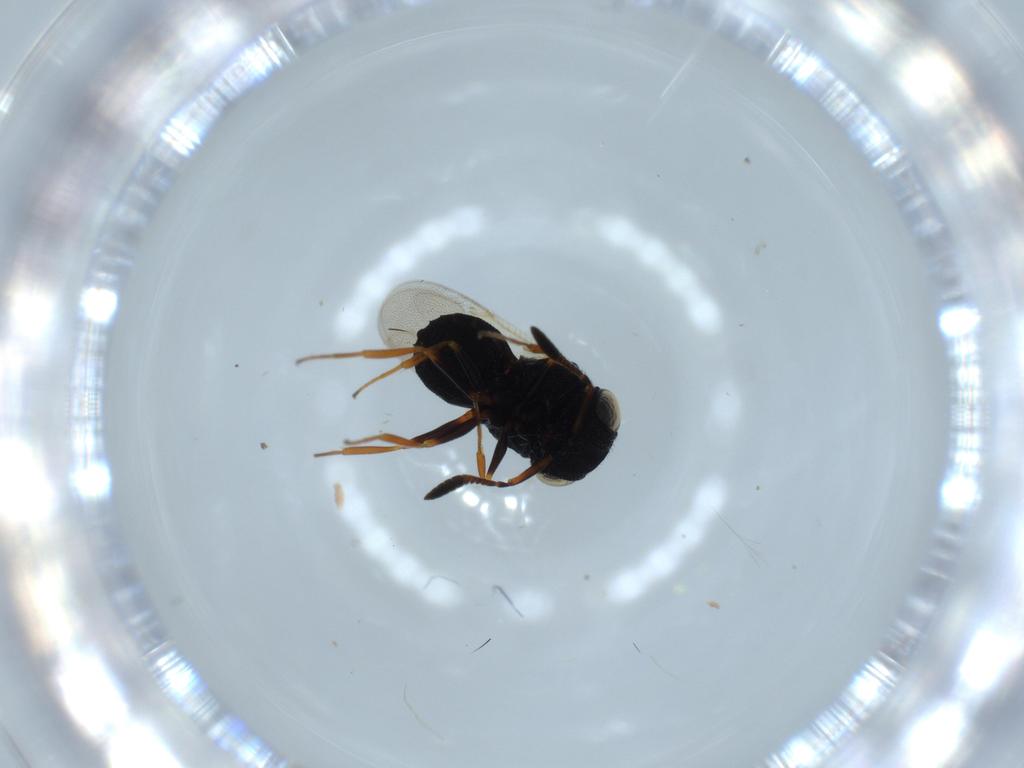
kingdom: Animalia
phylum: Arthropoda
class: Insecta
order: Hymenoptera
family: Scelionidae
